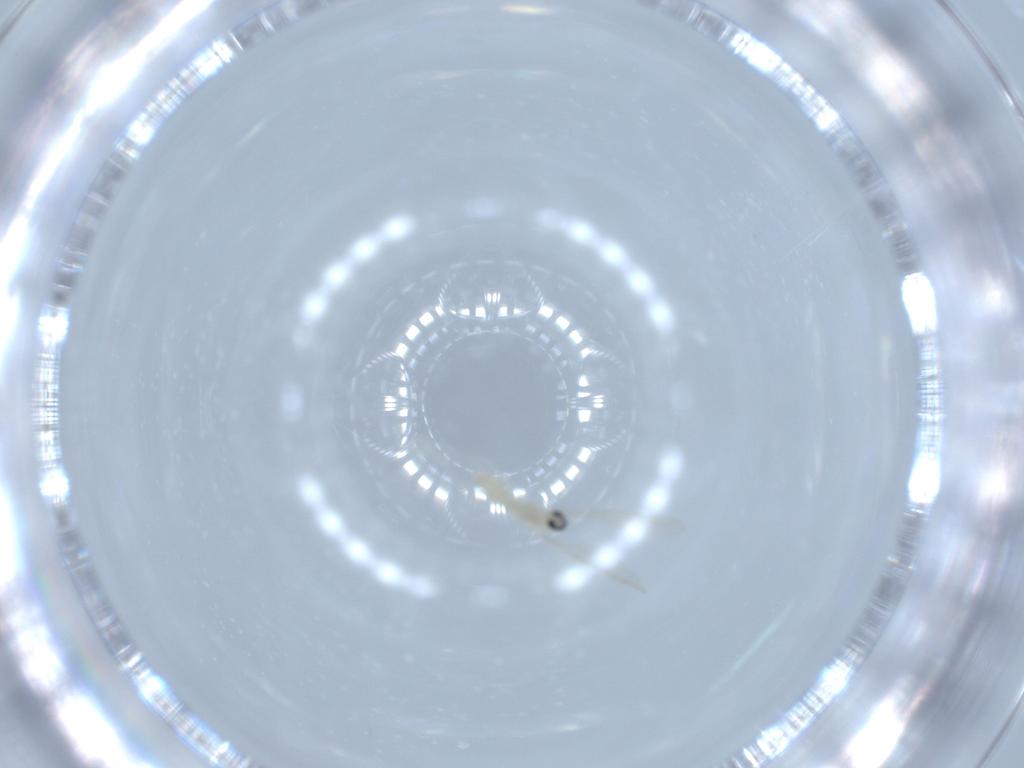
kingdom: Animalia
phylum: Arthropoda
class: Insecta
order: Diptera
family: Cecidomyiidae
